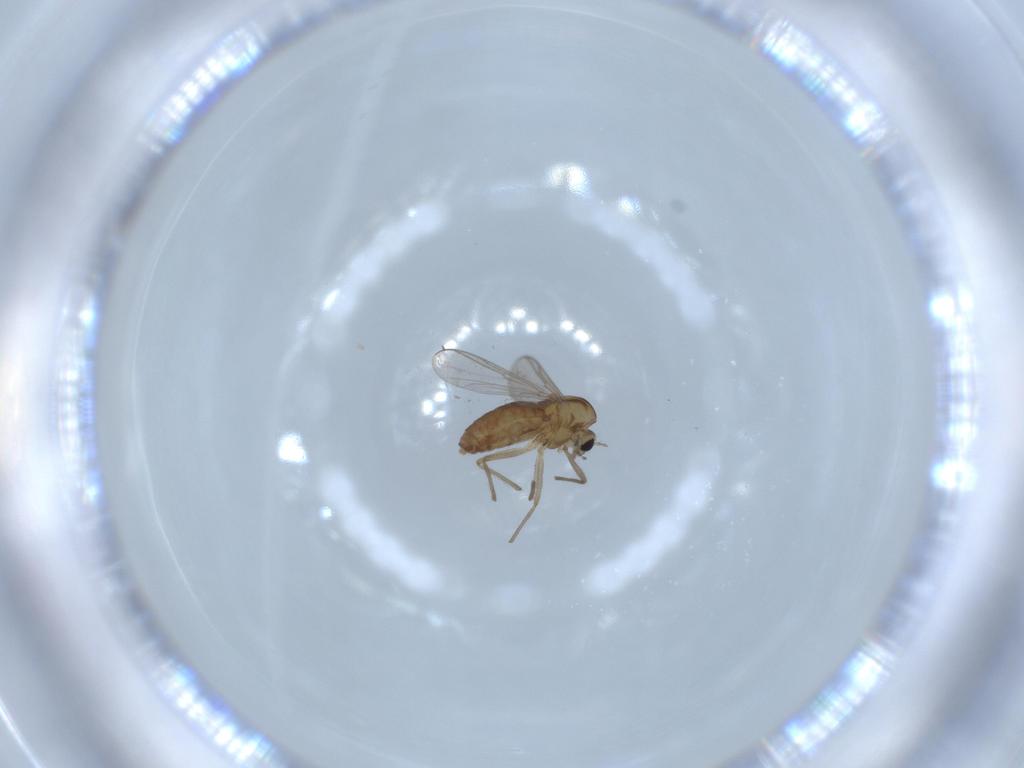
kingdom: Animalia
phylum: Arthropoda
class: Insecta
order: Diptera
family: Chironomidae
